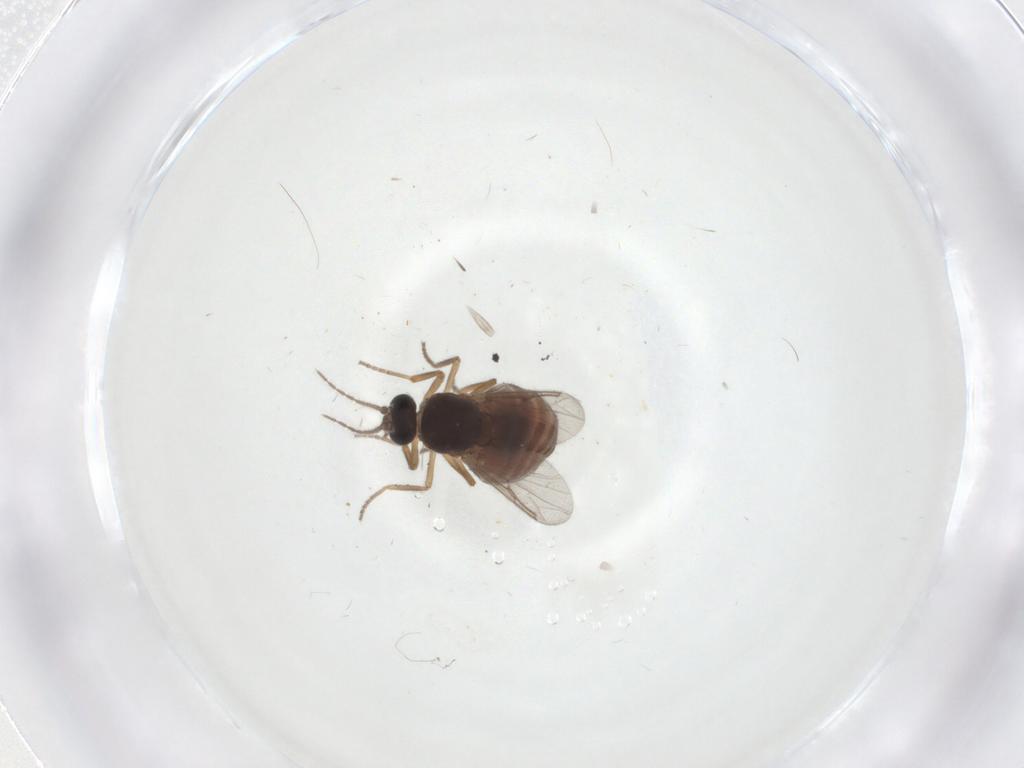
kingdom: Animalia
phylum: Arthropoda
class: Insecta
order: Diptera
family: Ceratopogonidae
